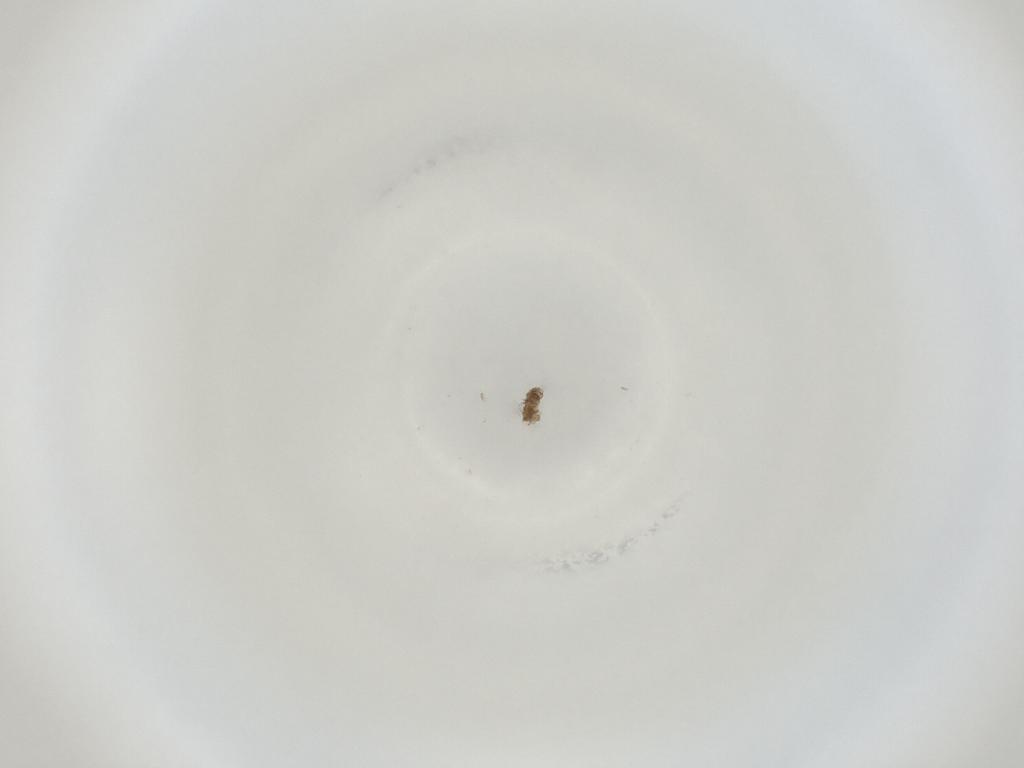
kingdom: Animalia
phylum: Arthropoda
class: Insecta
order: Diptera
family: Cecidomyiidae
